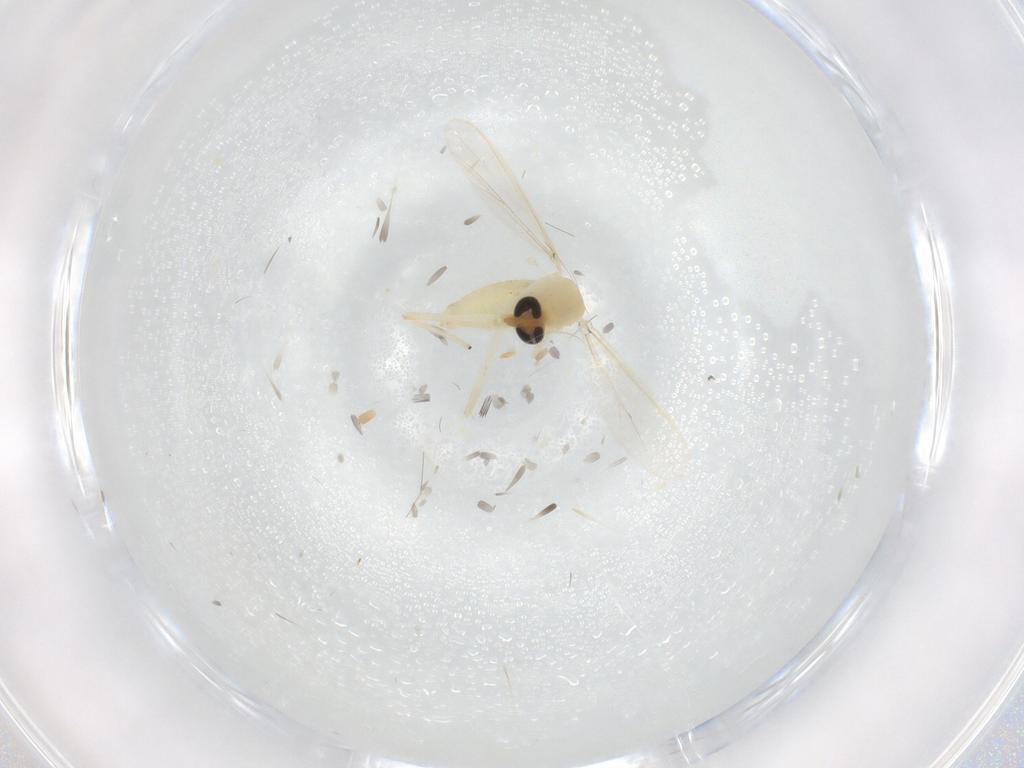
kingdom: Animalia
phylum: Arthropoda
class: Insecta
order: Diptera
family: Cecidomyiidae
